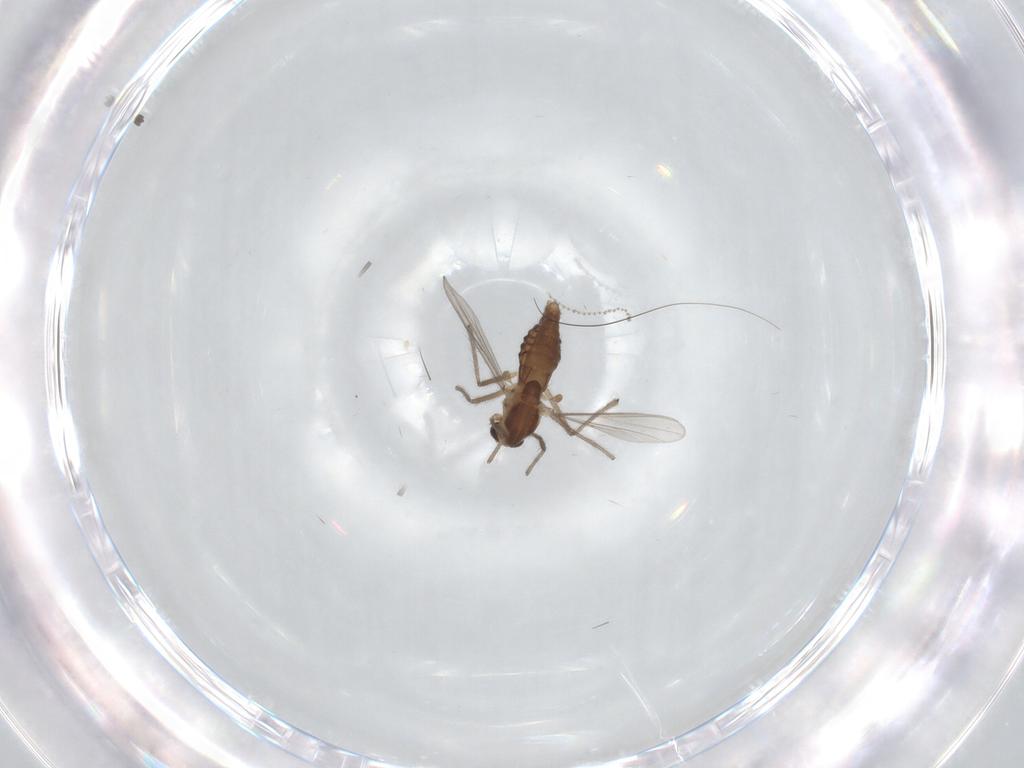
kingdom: Animalia
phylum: Arthropoda
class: Insecta
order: Diptera
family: Chironomidae
